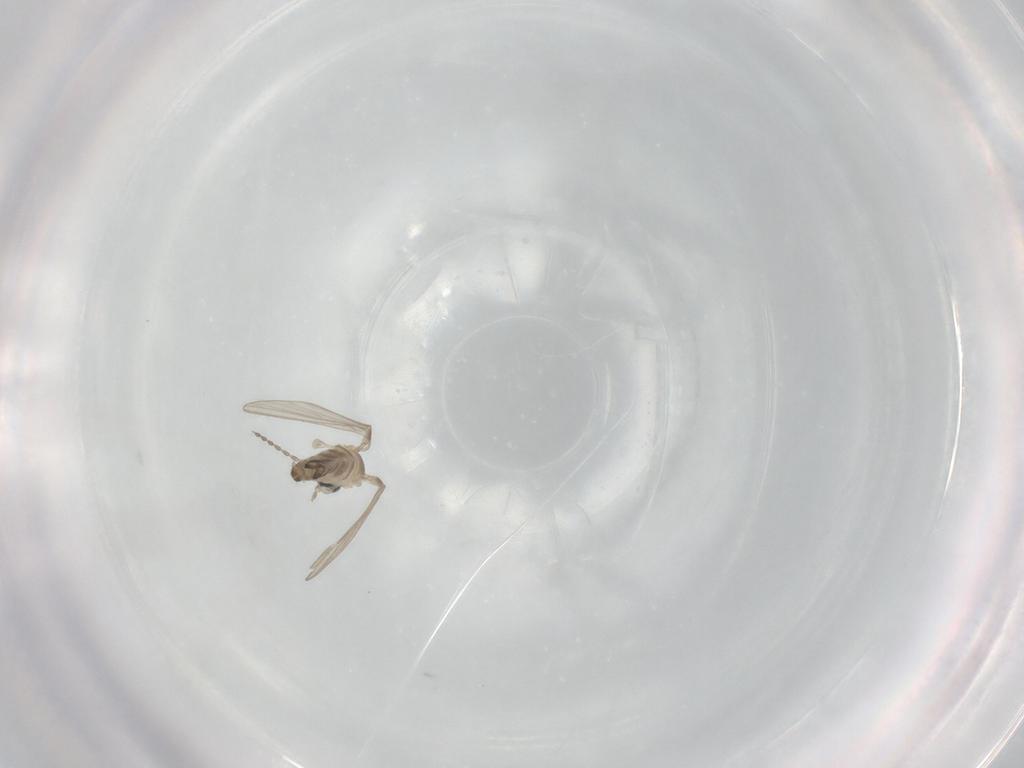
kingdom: Animalia
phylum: Arthropoda
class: Insecta
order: Diptera
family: Psychodidae
